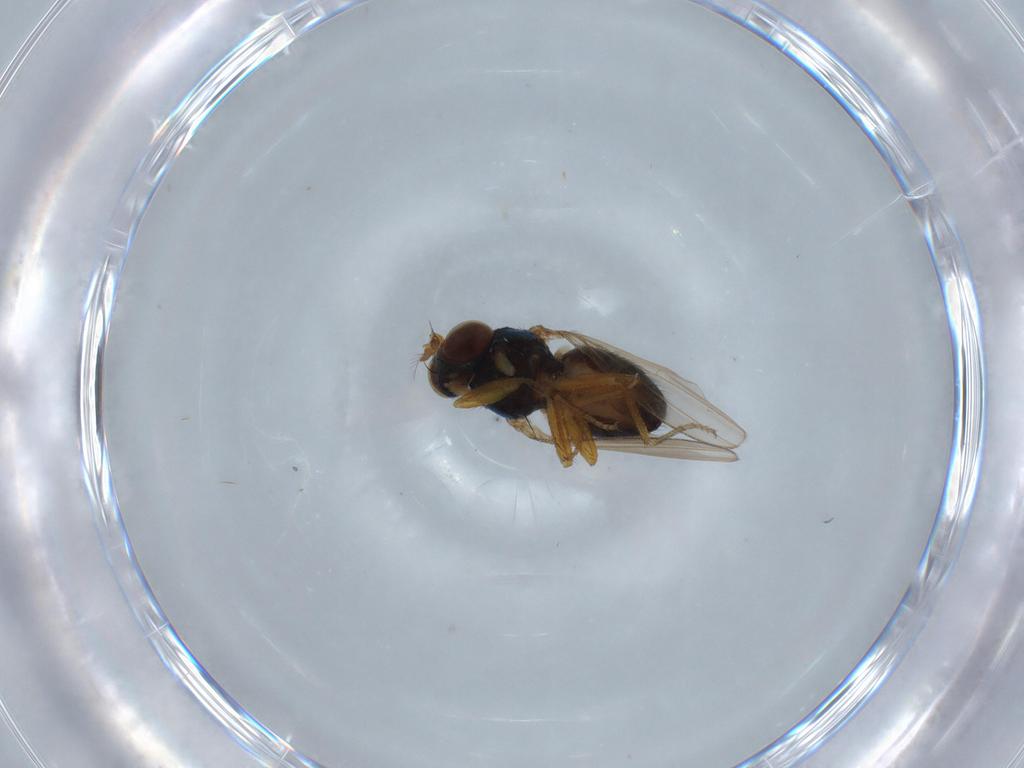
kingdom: Animalia
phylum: Arthropoda
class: Insecta
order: Diptera
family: Ephydridae
